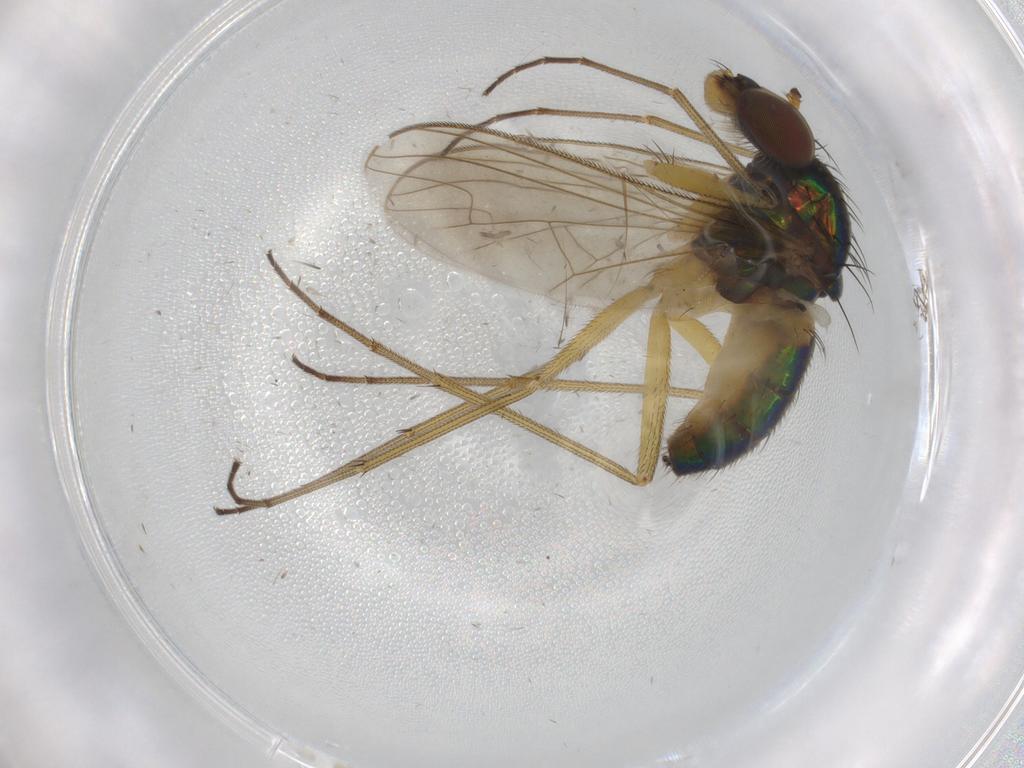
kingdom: Animalia
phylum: Arthropoda
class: Insecta
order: Diptera
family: Dolichopodidae
